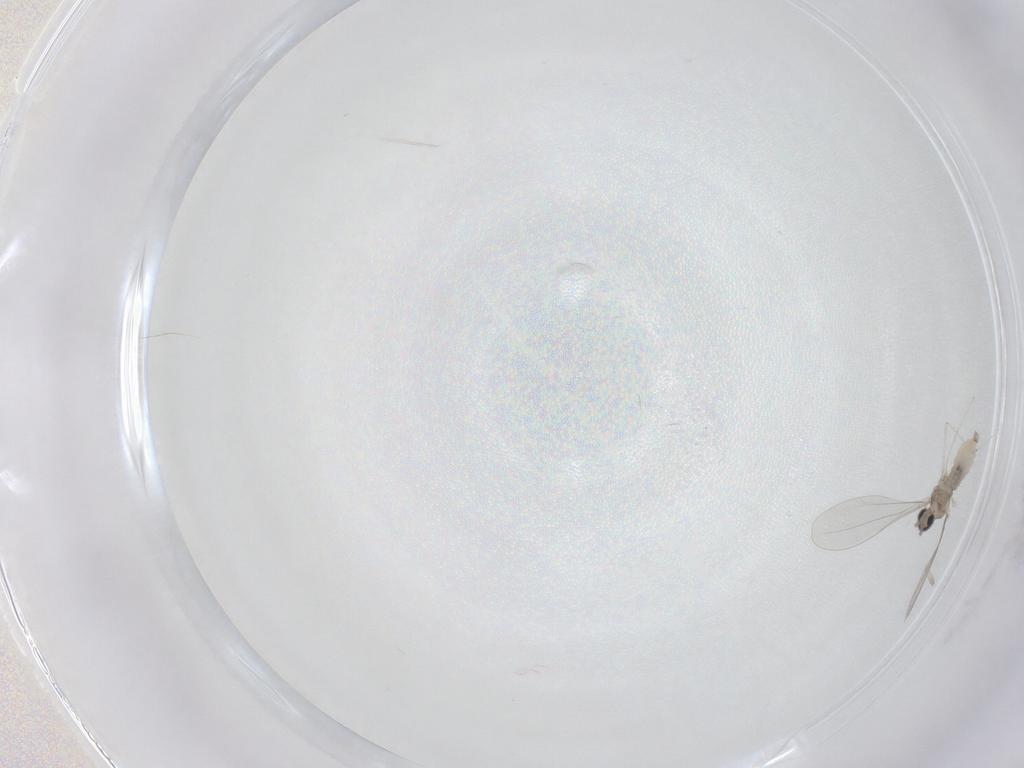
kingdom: Animalia
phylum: Arthropoda
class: Insecta
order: Diptera
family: Cecidomyiidae
